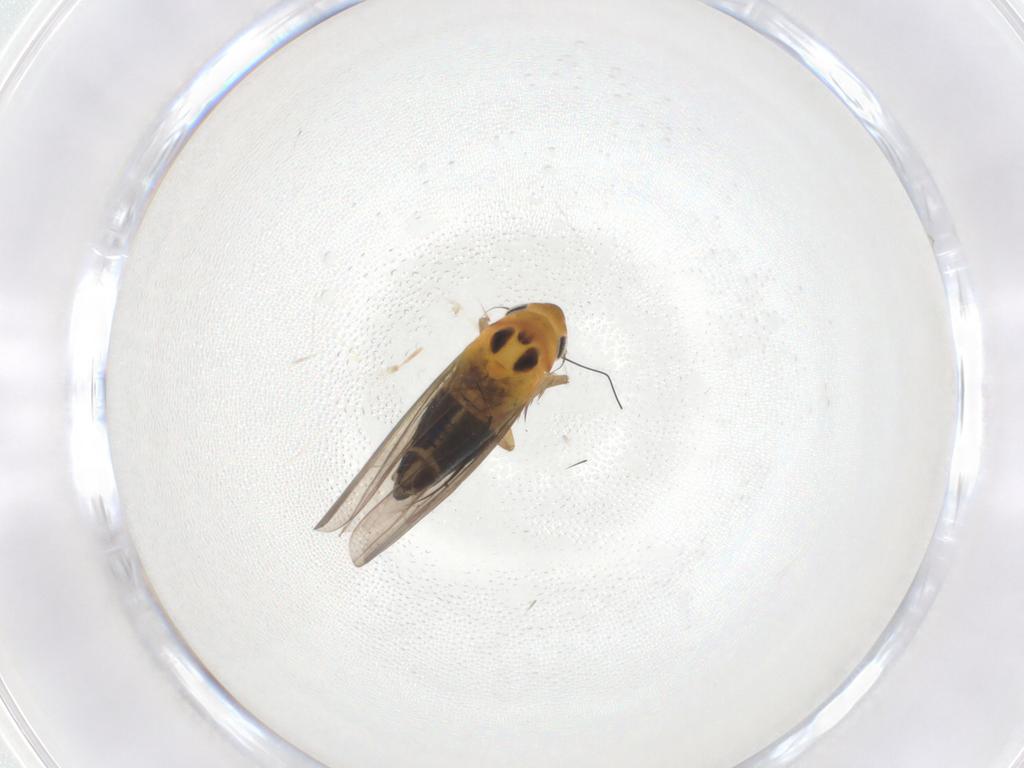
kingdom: Animalia
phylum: Arthropoda
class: Insecta
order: Hemiptera
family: Cicadellidae
